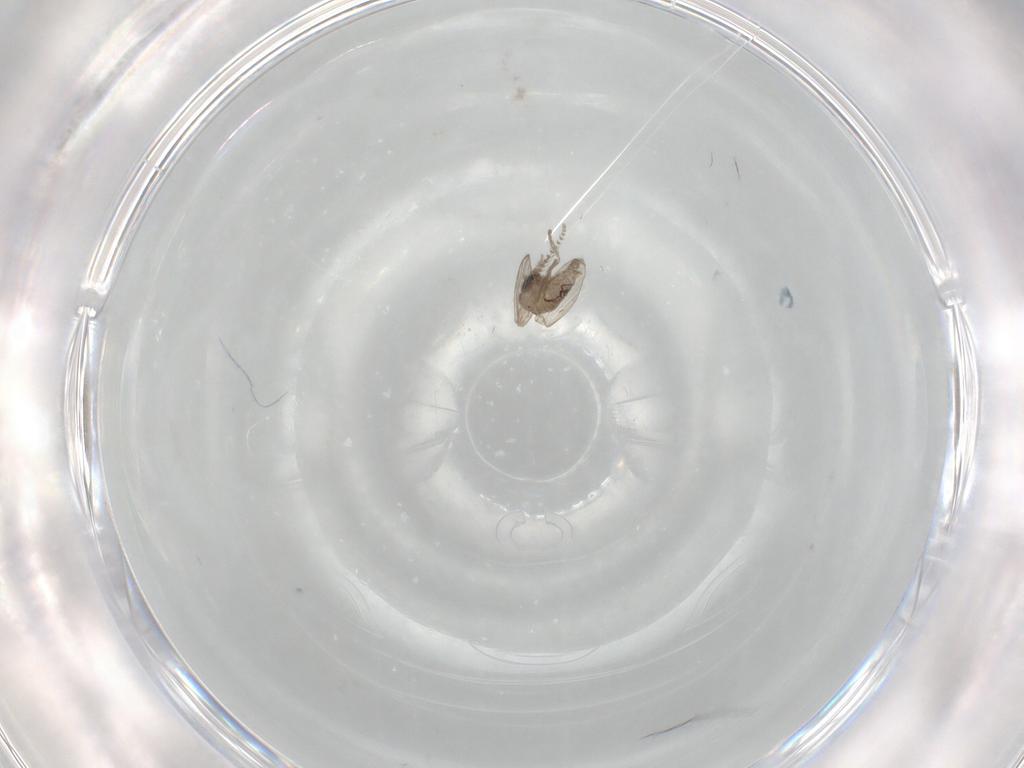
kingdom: Animalia
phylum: Arthropoda
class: Insecta
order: Diptera
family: Psychodidae
